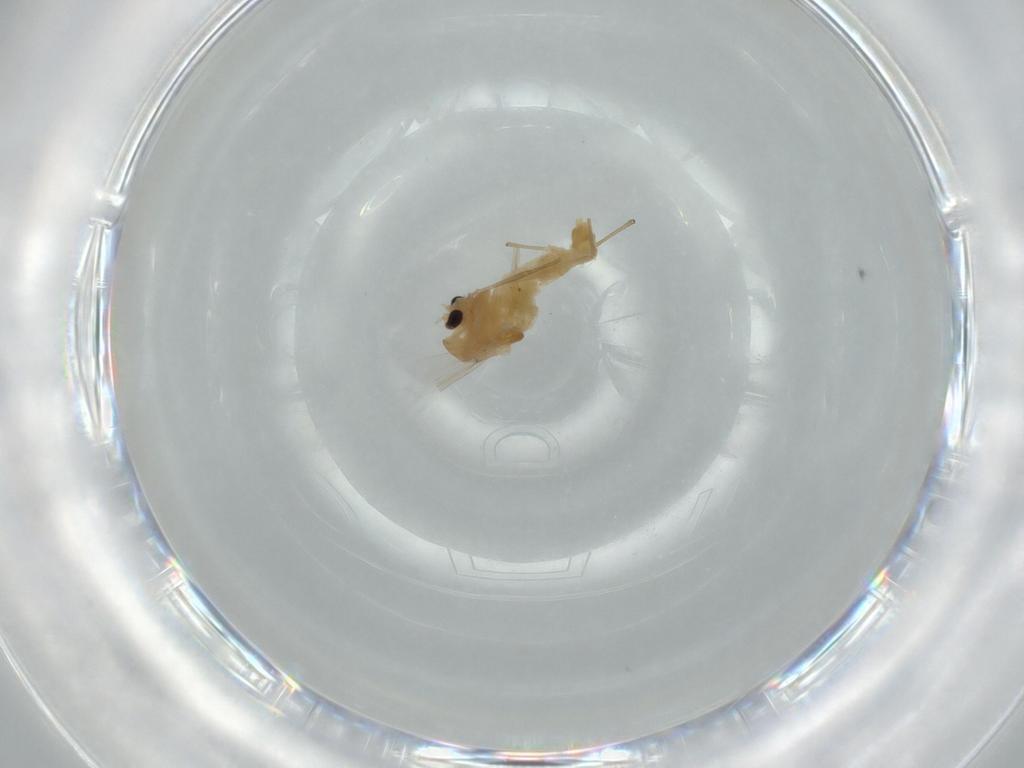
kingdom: Animalia
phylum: Arthropoda
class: Insecta
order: Diptera
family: Chironomidae
